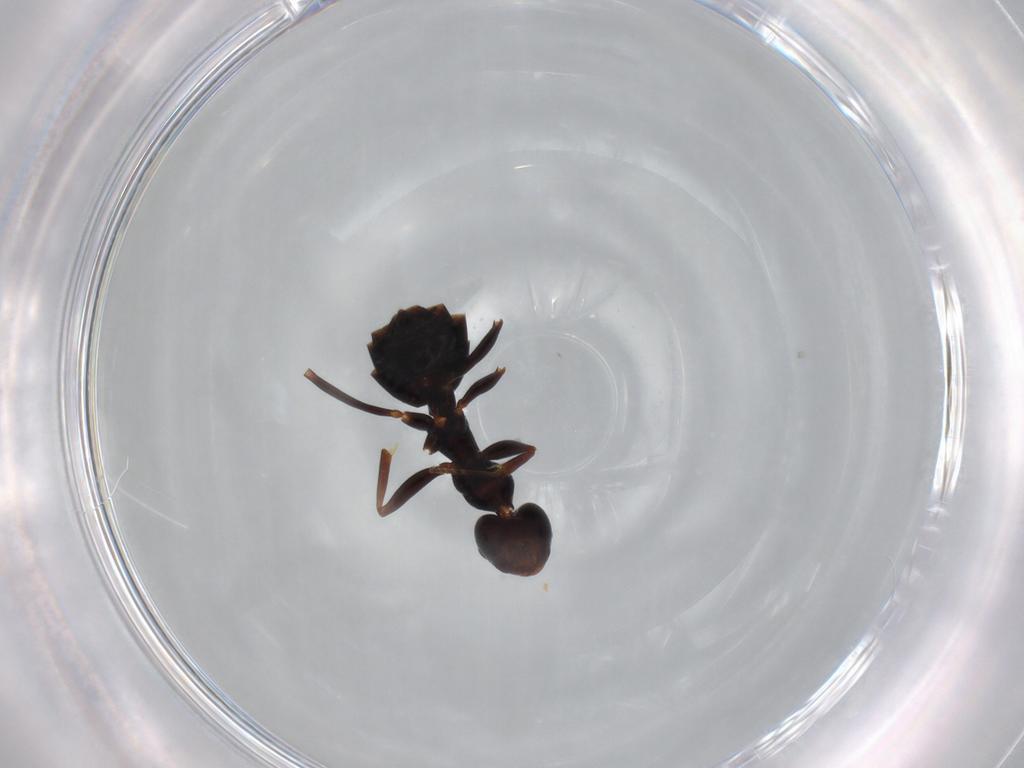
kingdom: Animalia
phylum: Arthropoda
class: Insecta
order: Hymenoptera
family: Formicidae
